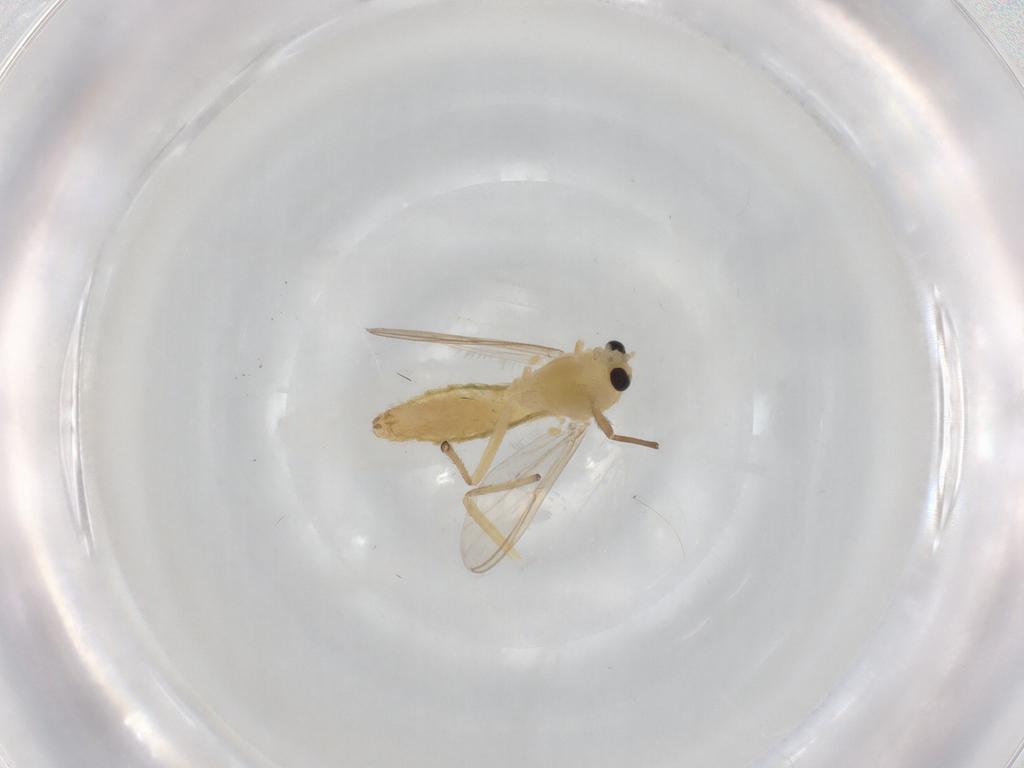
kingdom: Animalia
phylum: Arthropoda
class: Insecta
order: Diptera
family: Chironomidae
